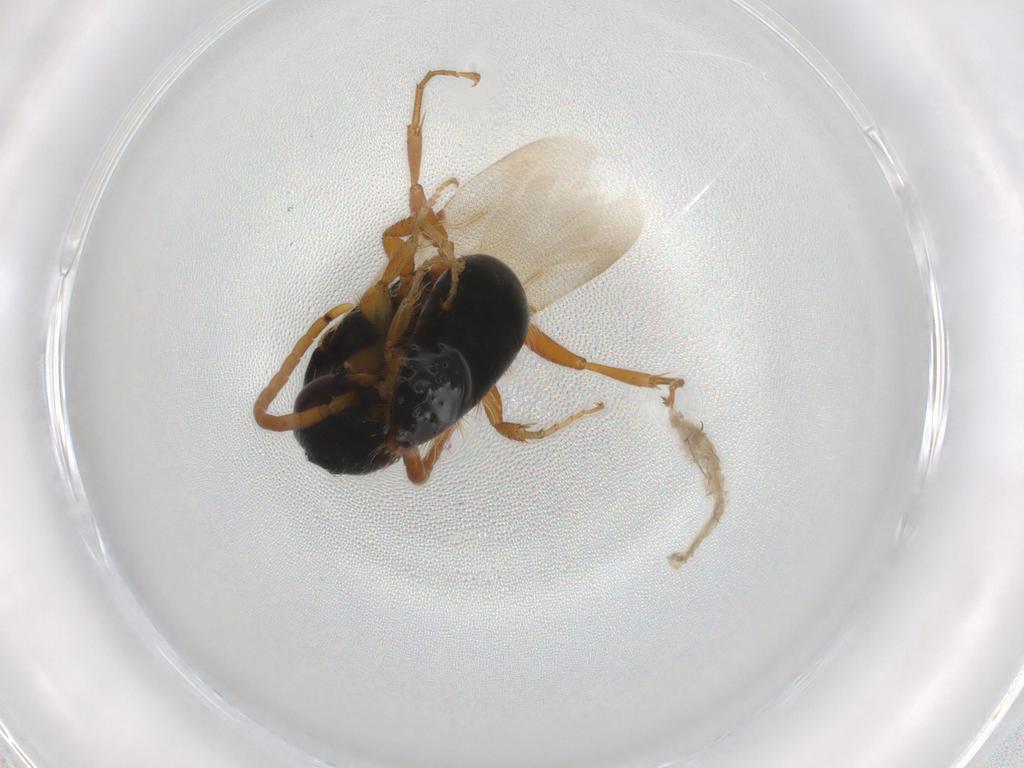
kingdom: Animalia
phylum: Arthropoda
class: Insecta
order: Hymenoptera
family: Bethylidae
